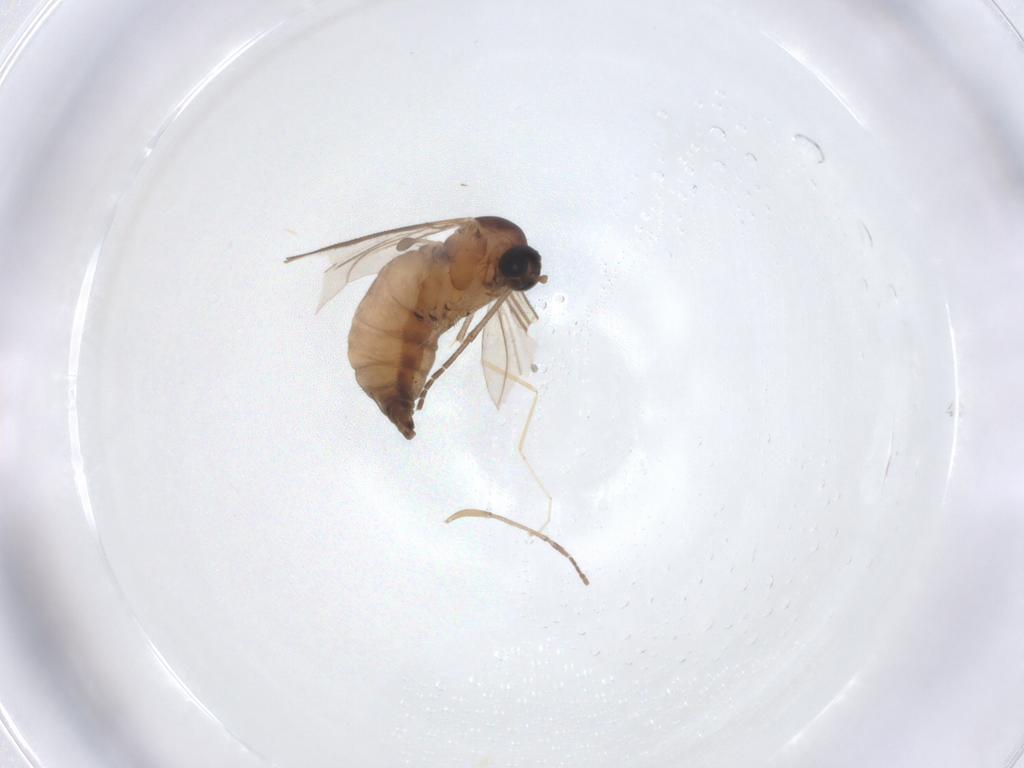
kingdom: Animalia
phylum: Arthropoda
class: Insecta
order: Diptera
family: Psychodidae
